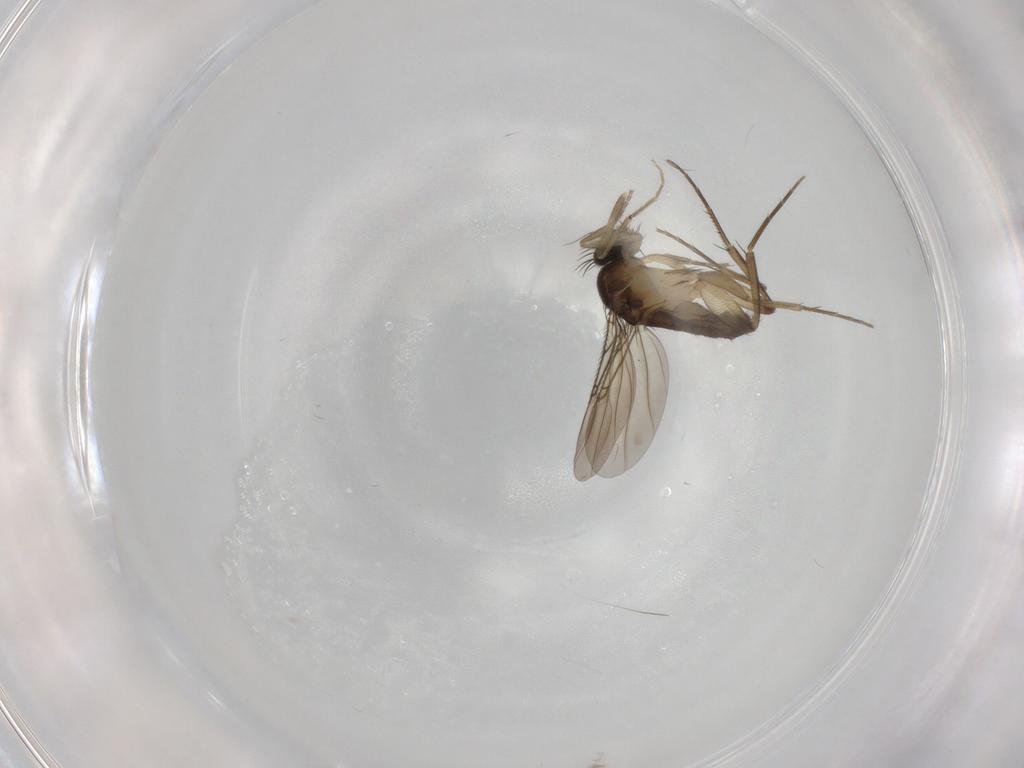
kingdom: Animalia
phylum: Arthropoda
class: Insecta
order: Diptera
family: Phoridae
